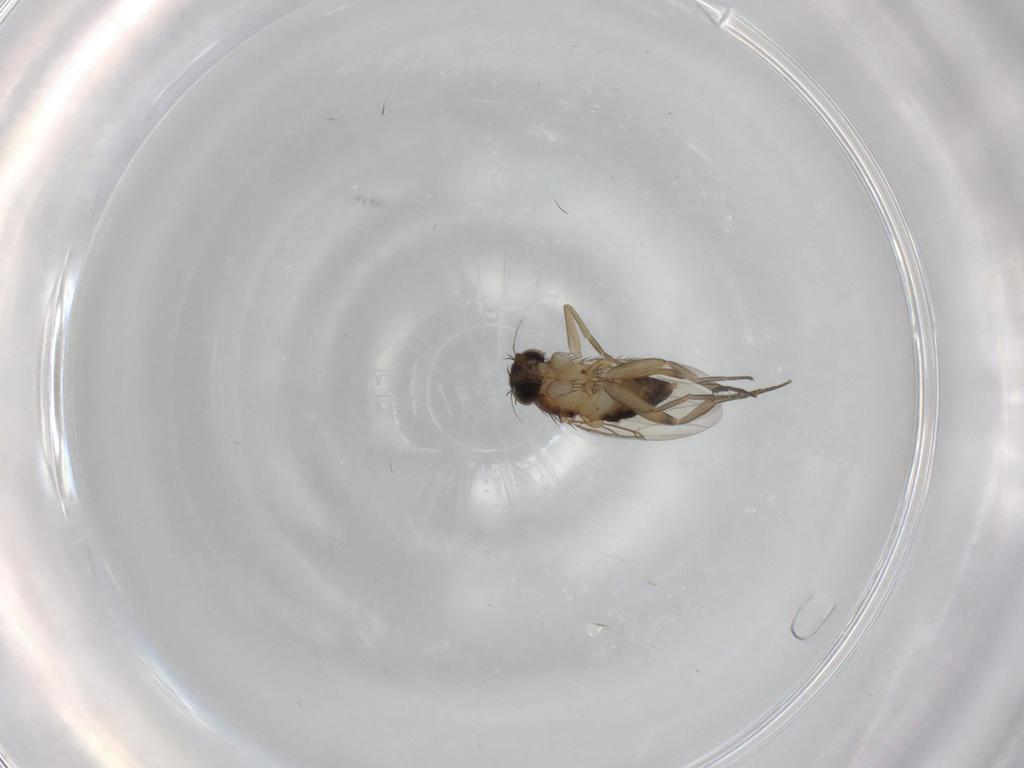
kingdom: Animalia
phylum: Arthropoda
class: Insecta
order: Diptera
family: Phoridae
